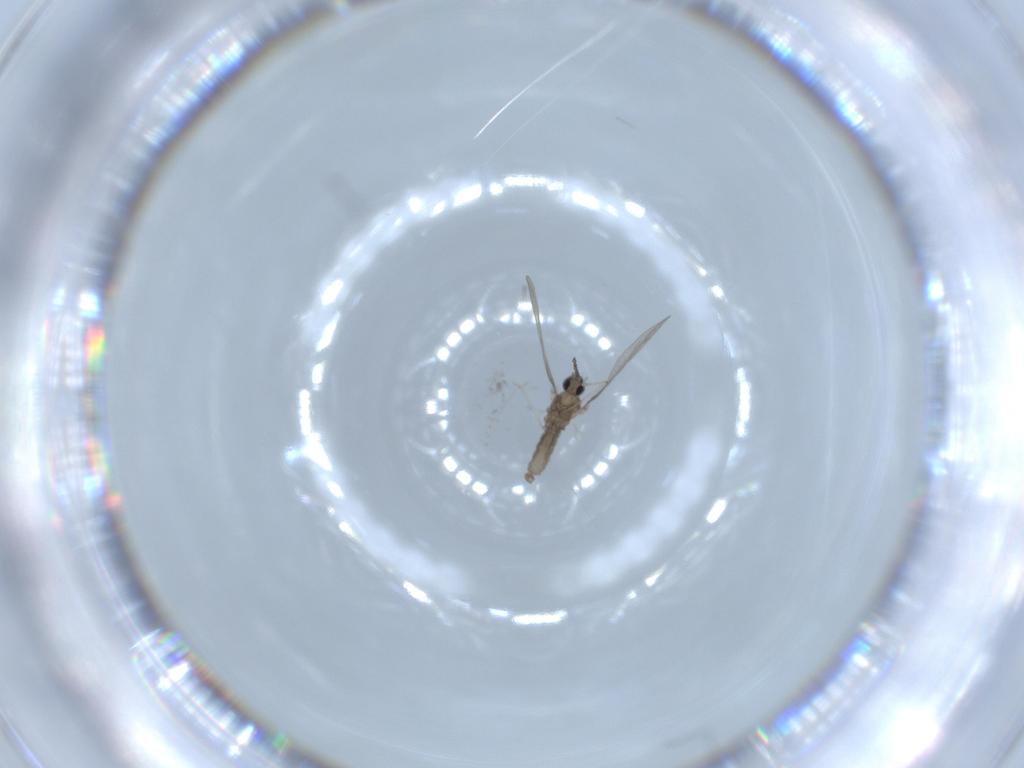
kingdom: Animalia
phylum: Arthropoda
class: Insecta
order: Diptera
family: Cecidomyiidae
